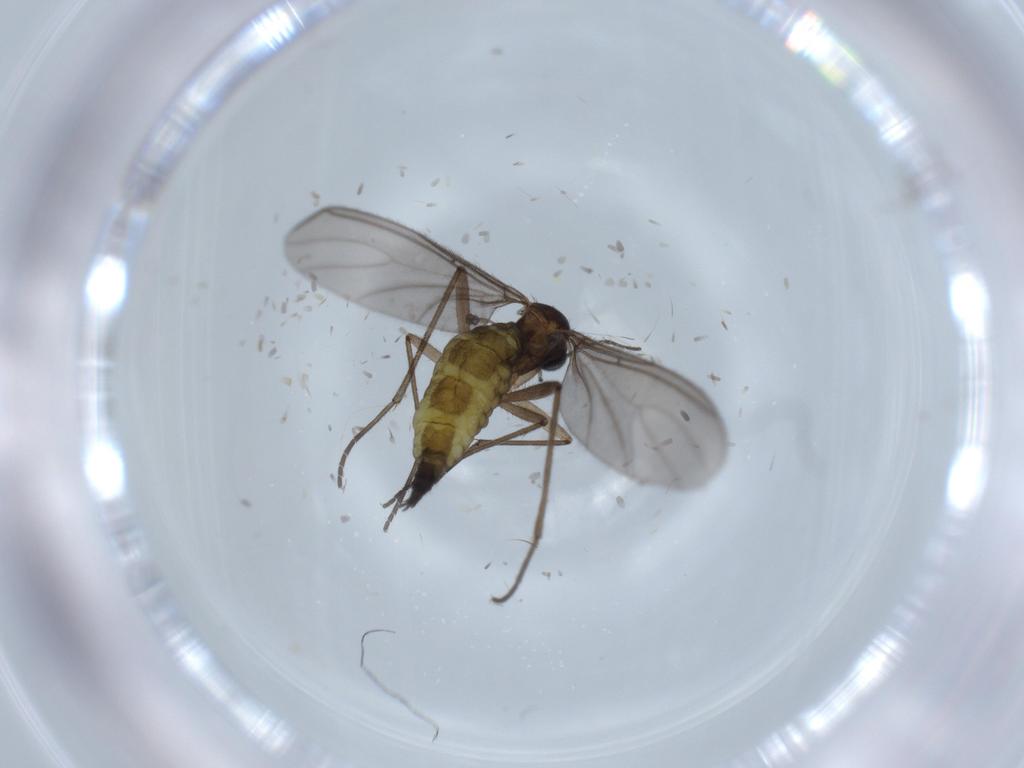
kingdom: Animalia
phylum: Arthropoda
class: Insecta
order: Diptera
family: Sciaridae
